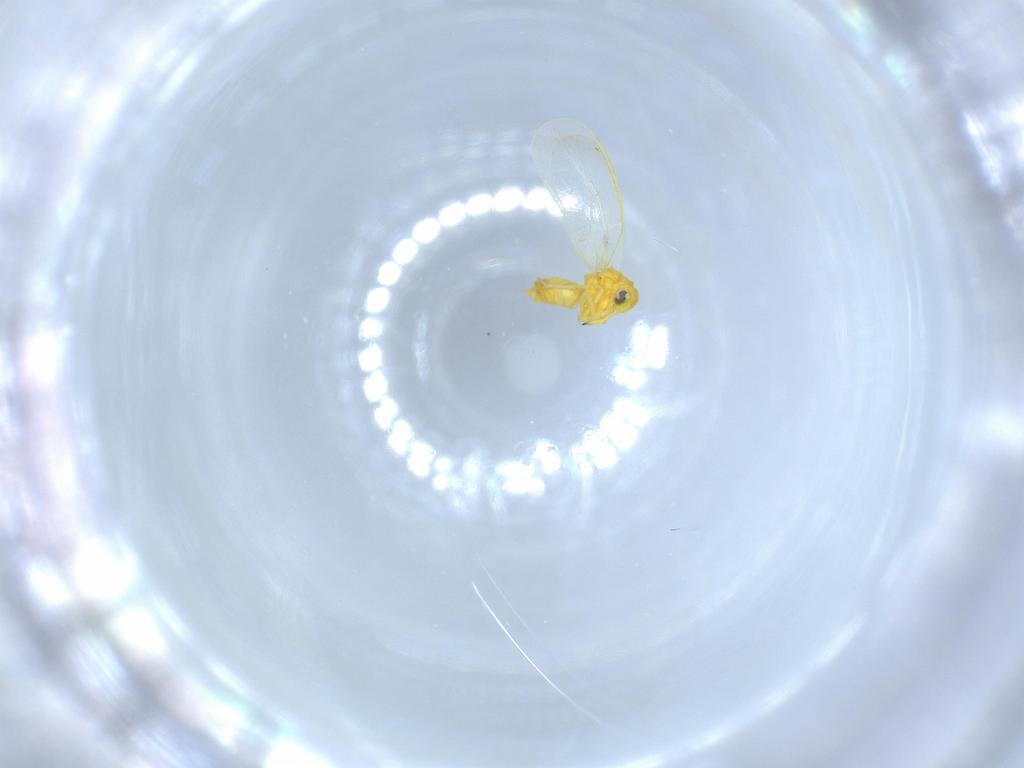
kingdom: Animalia
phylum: Arthropoda
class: Insecta
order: Hemiptera
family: Aleyrodidae
